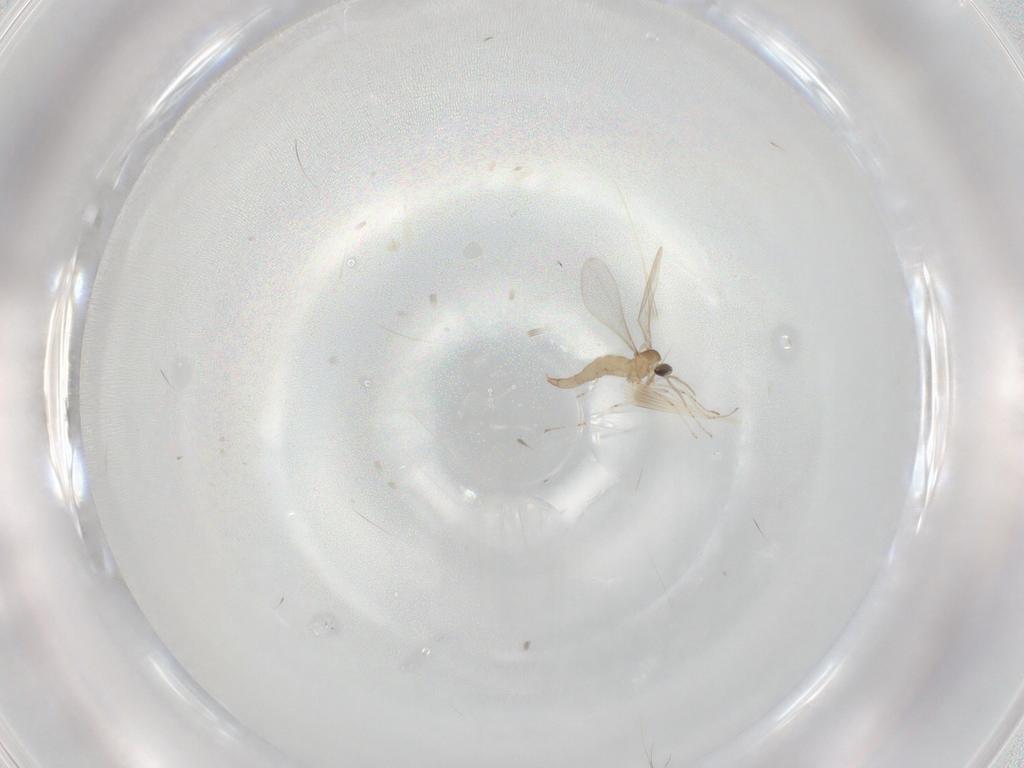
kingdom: Animalia
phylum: Arthropoda
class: Insecta
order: Diptera
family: Cecidomyiidae
